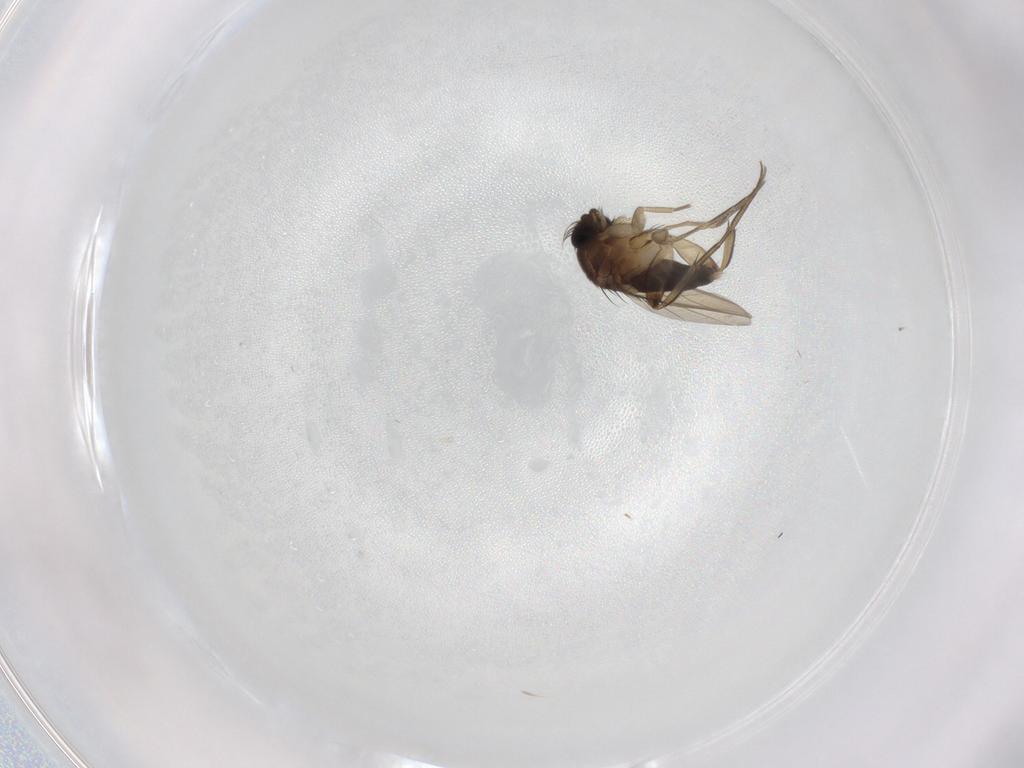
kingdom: Animalia
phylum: Arthropoda
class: Insecta
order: Diptera
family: Phoridae
